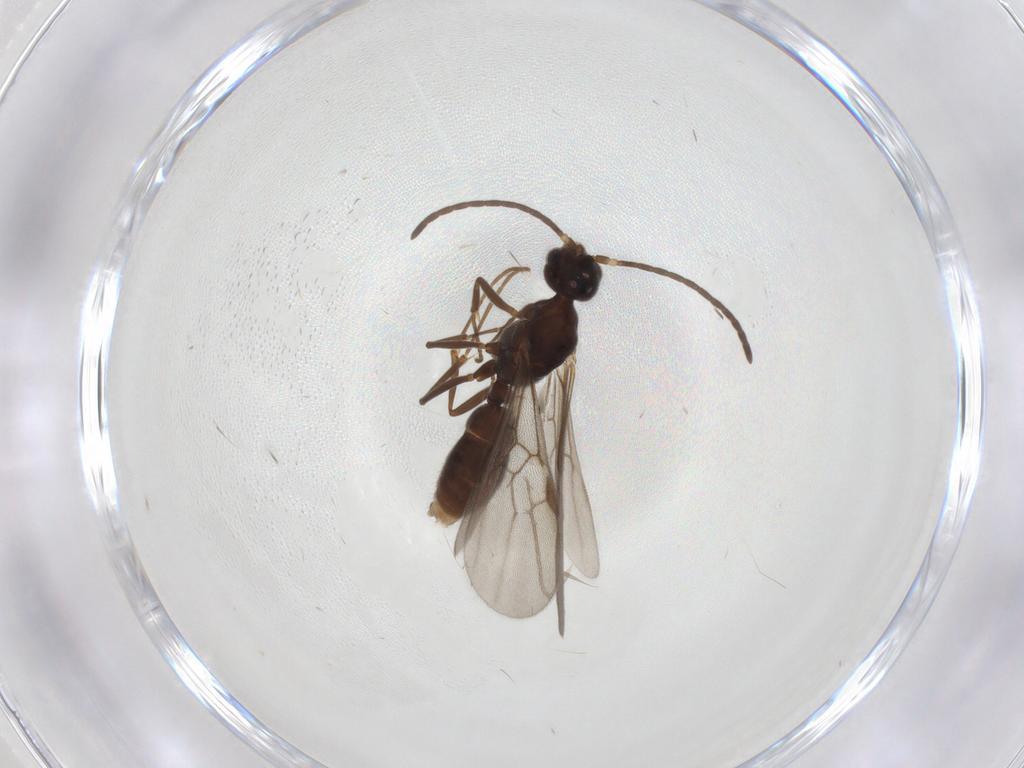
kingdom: Animalia
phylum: Arthropoda
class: Insecta
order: Hymenoptera
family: Formicidae
